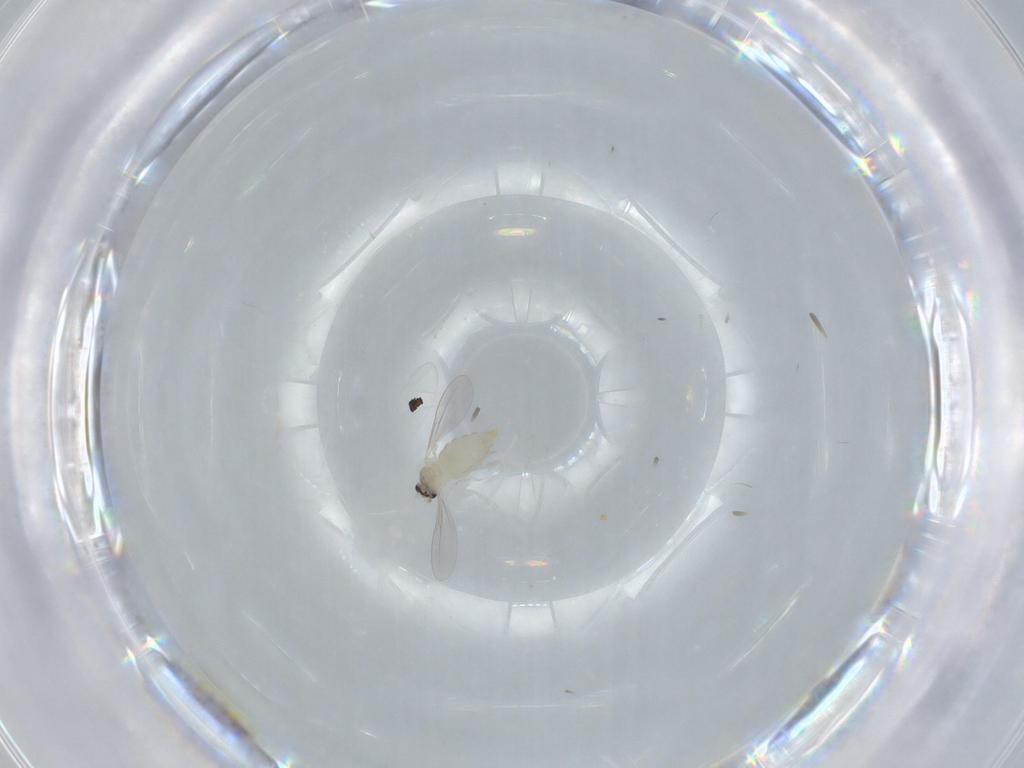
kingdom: Animalia
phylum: Arthropoda
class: Insecta
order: Diptera
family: Cecidomyiidae
